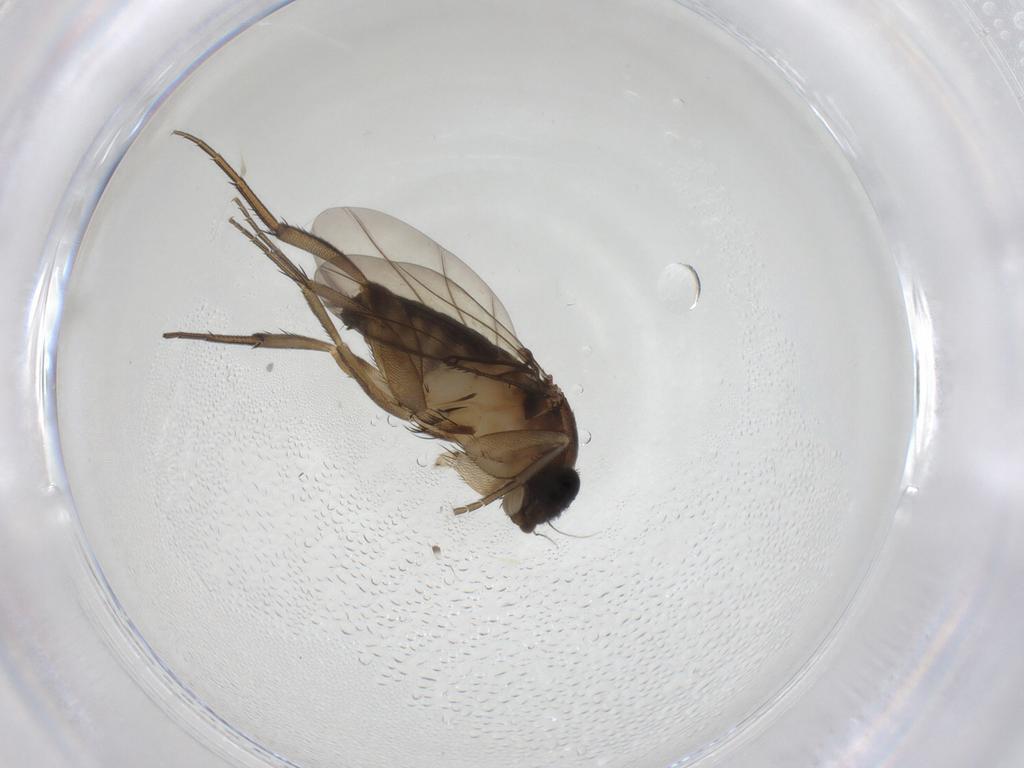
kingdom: Animalia
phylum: Arthropoda
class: Insecta
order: Diptera
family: Phoridae
